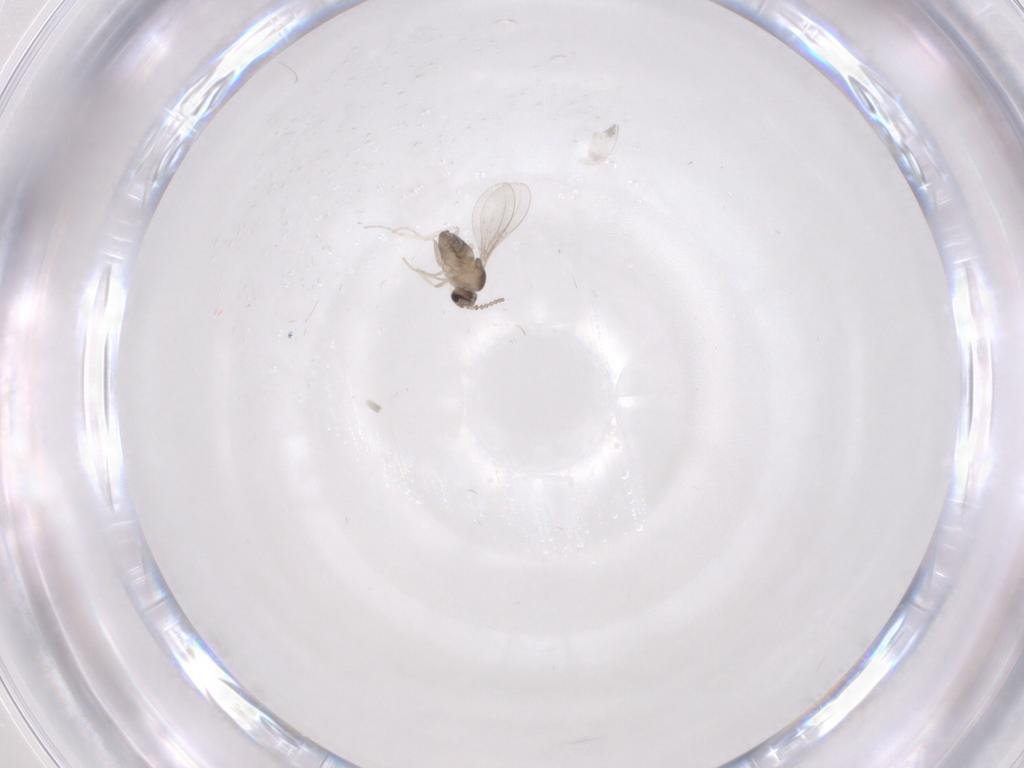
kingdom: Animalia
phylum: Arthropoda
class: Insecta
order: Diptera
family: Cecidomyiidae
